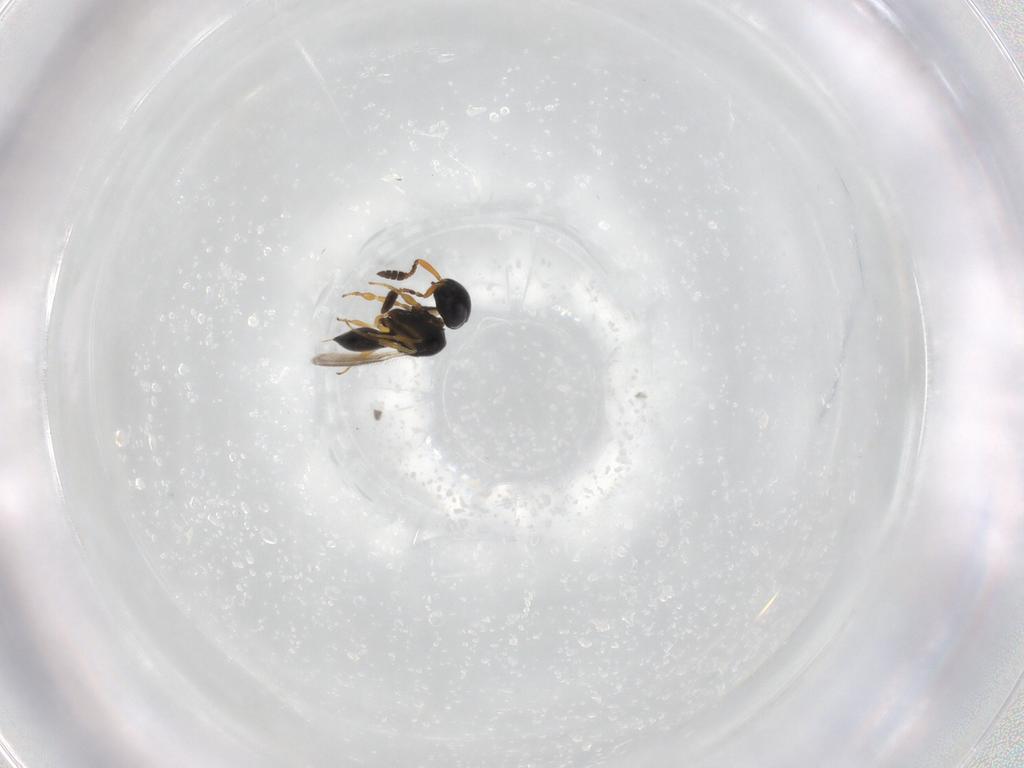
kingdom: Animalia
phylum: Arthropoda
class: Insecta
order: Hymenoptera
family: Scelionidae
